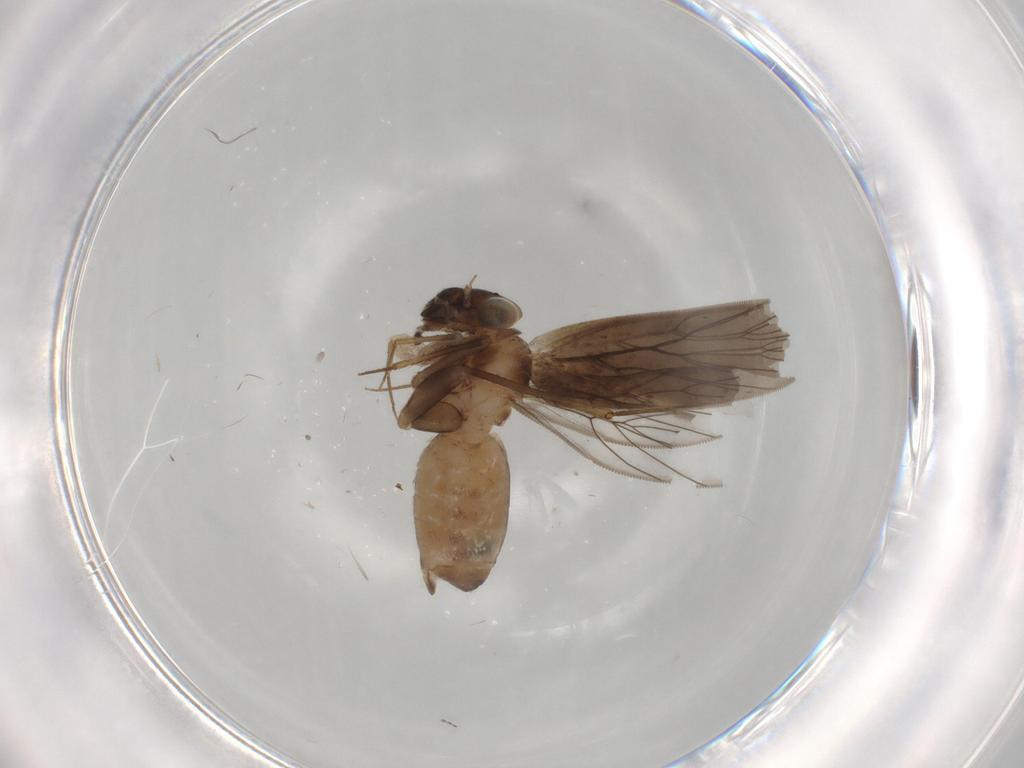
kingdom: Animalia
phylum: Arthropoda
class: Insecta
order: Psocodea
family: Lepidopsocidae
